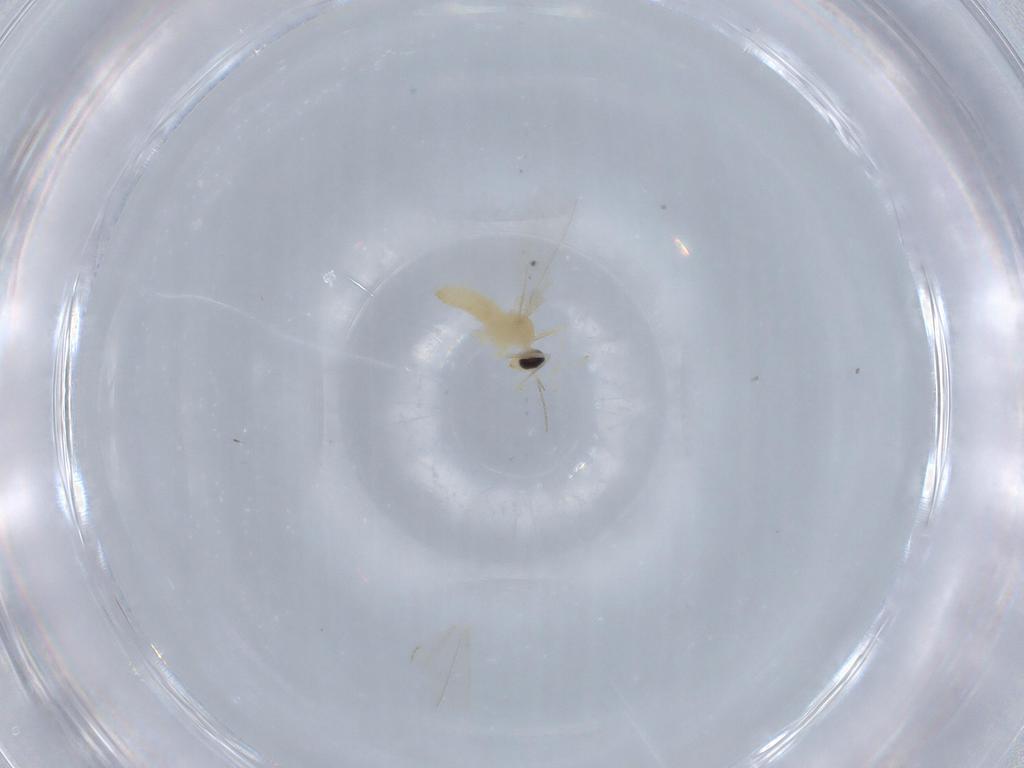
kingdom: Animalia
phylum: Arthropoda
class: Insecta
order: Diptera
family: Cecidomyiidae
